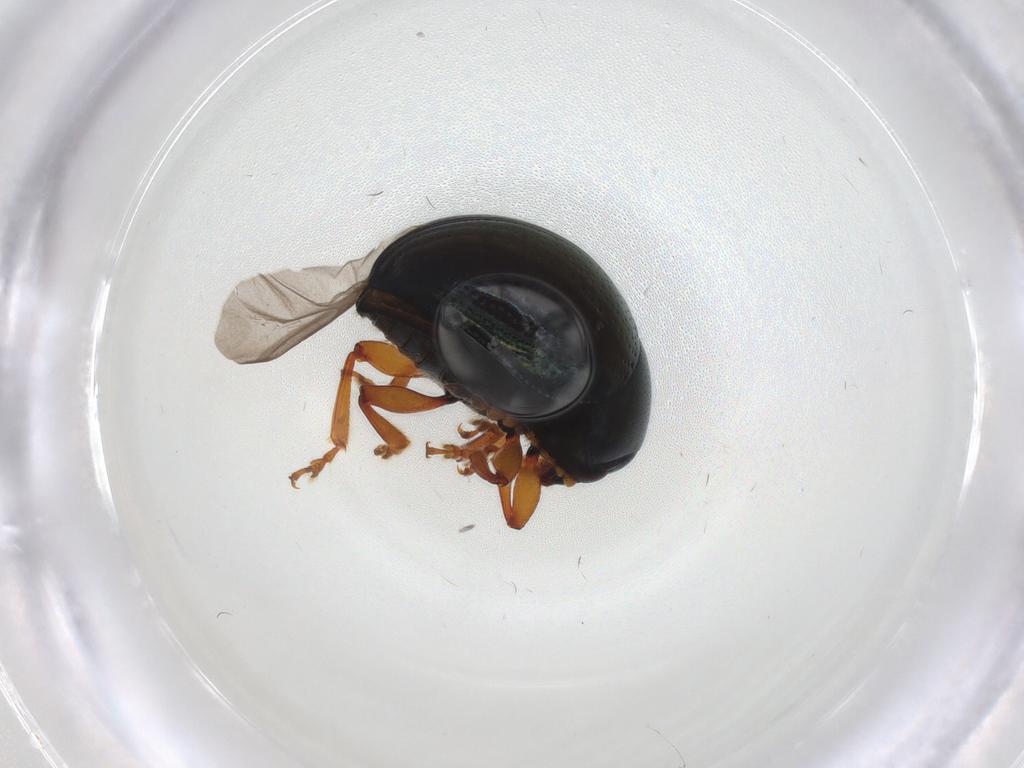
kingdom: Animalia
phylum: Arthropoda
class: Insecta
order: Coleoptera
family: Chrysomelidae
